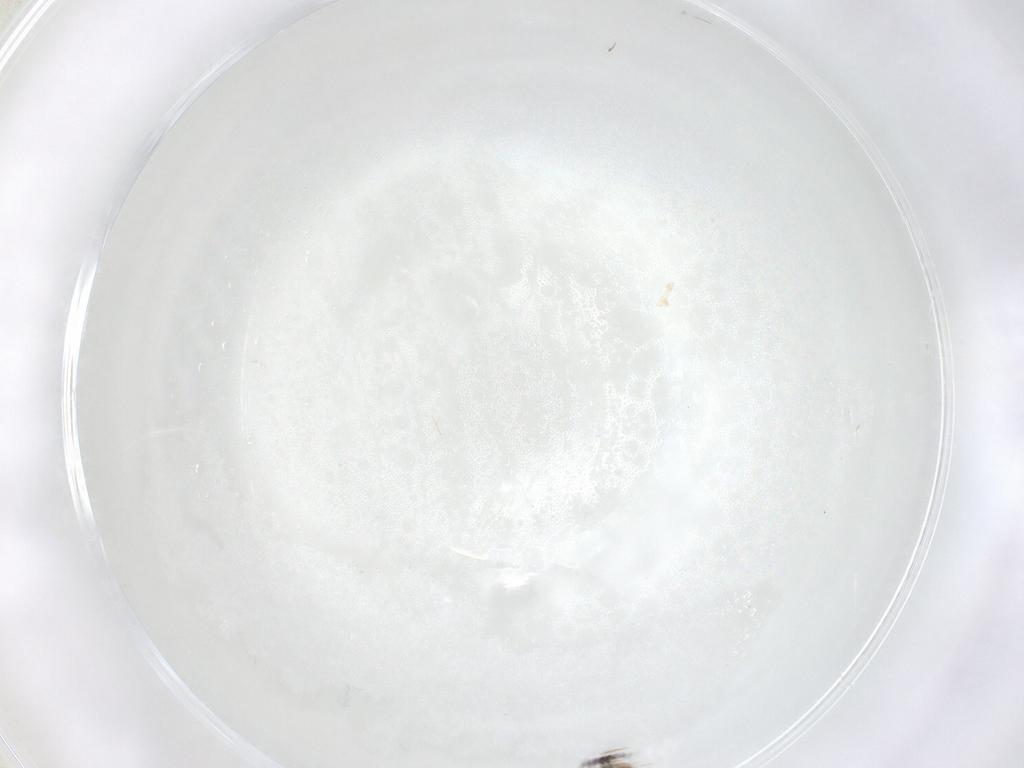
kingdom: Animalia
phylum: Arthropoda
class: Insecta
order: Hymenoptera
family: Mymaridae
